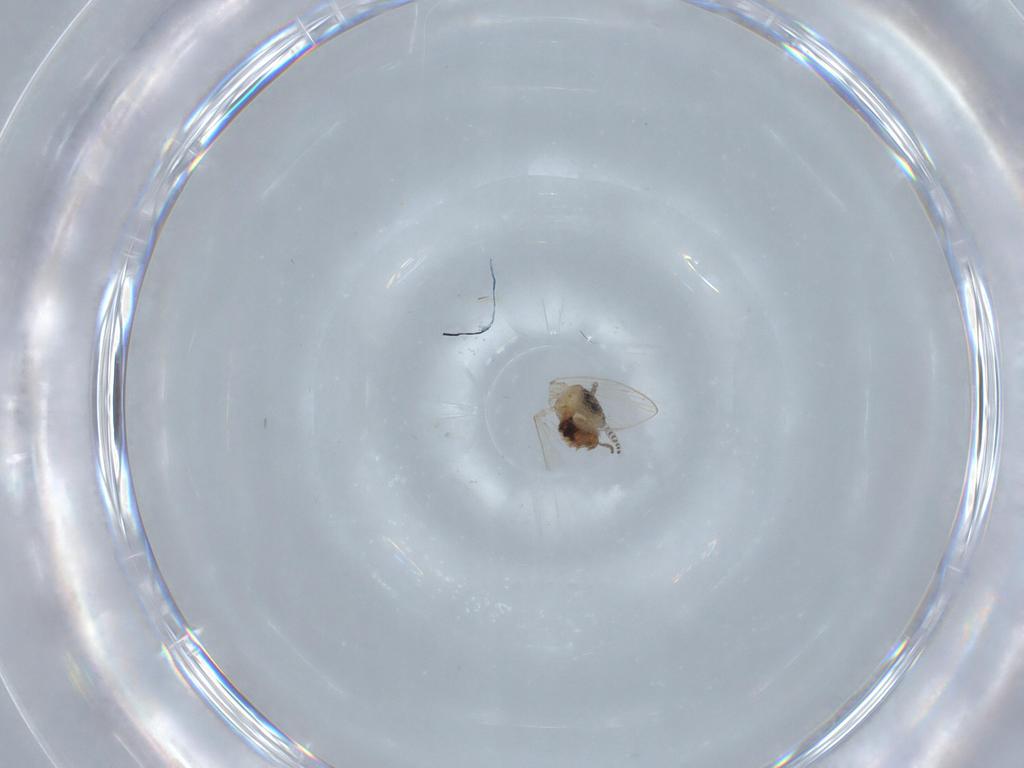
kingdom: Animalia
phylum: Arthropoda
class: Insecta
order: Diptera
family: Psychodidae
